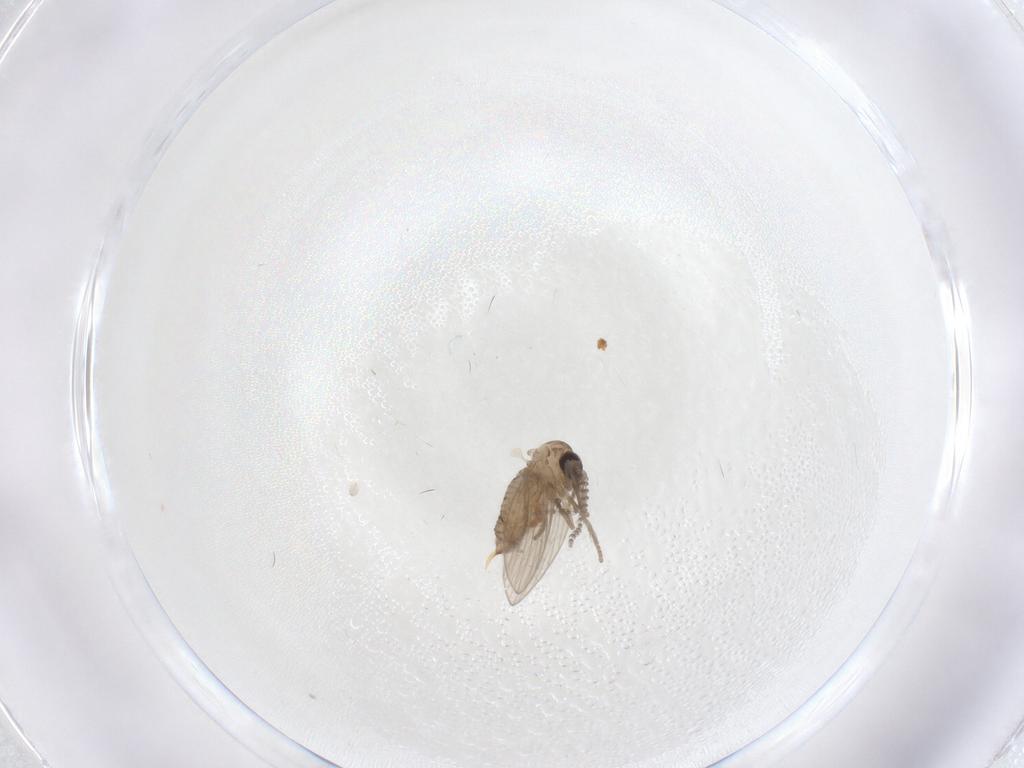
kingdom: Animalia
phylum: Arthropoda
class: Insecta
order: Diptera
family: Psychodidae
